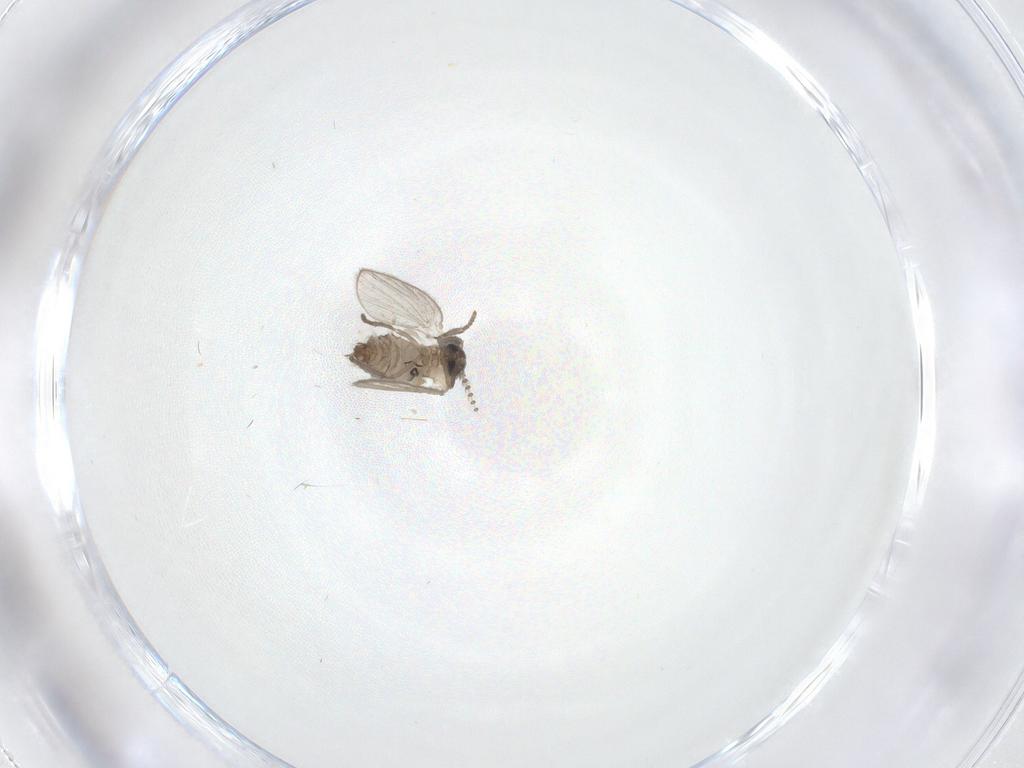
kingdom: Animalia
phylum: Arthropoda
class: Insecta
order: Diptera
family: Psychodidae
